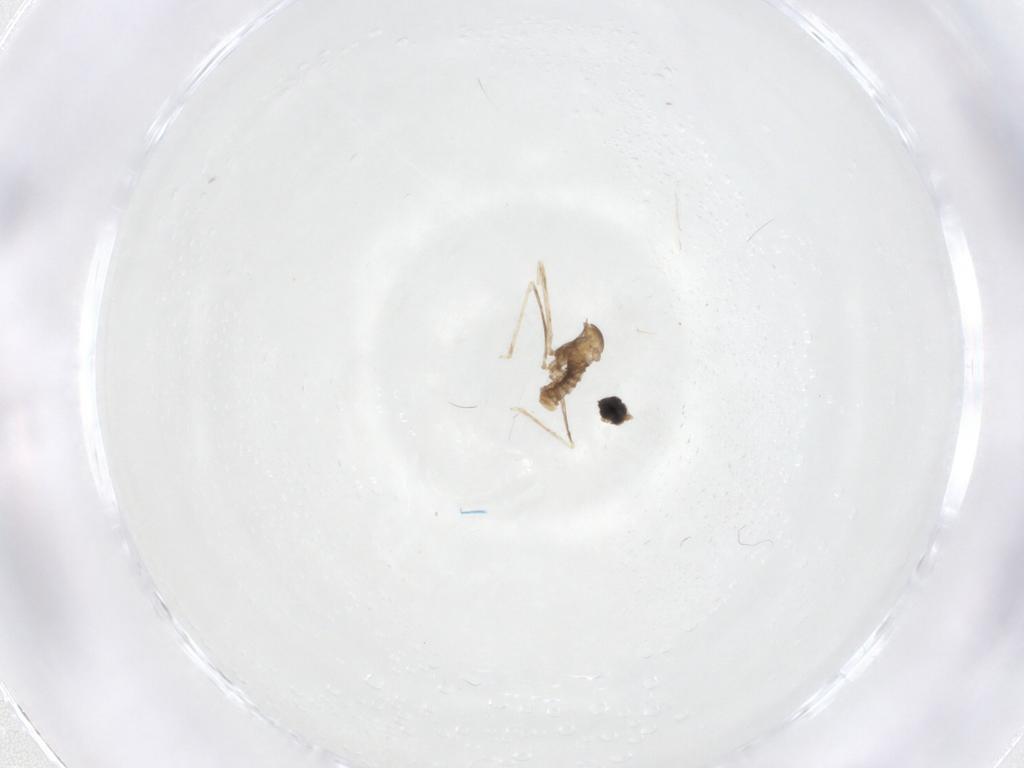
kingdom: Animalia
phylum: Arthropoda
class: Insecta
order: Diptera
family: Cecidomyiidae
